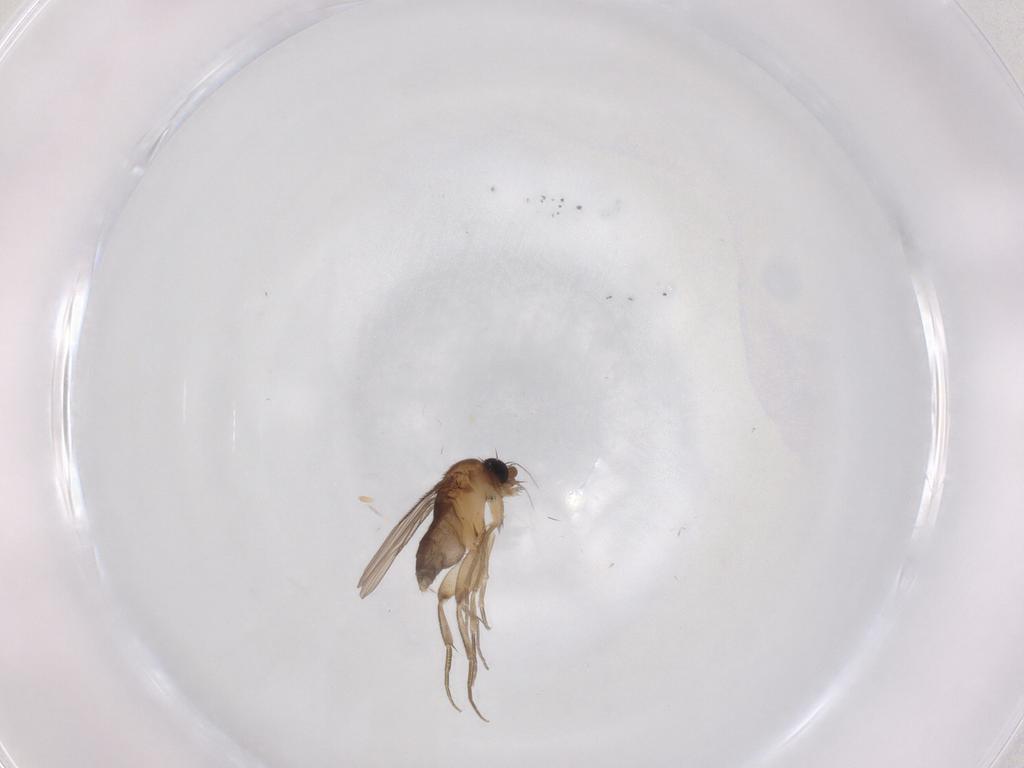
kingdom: Animalia
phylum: Arthropoda
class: Insecta
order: Diptera
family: Phoridae
